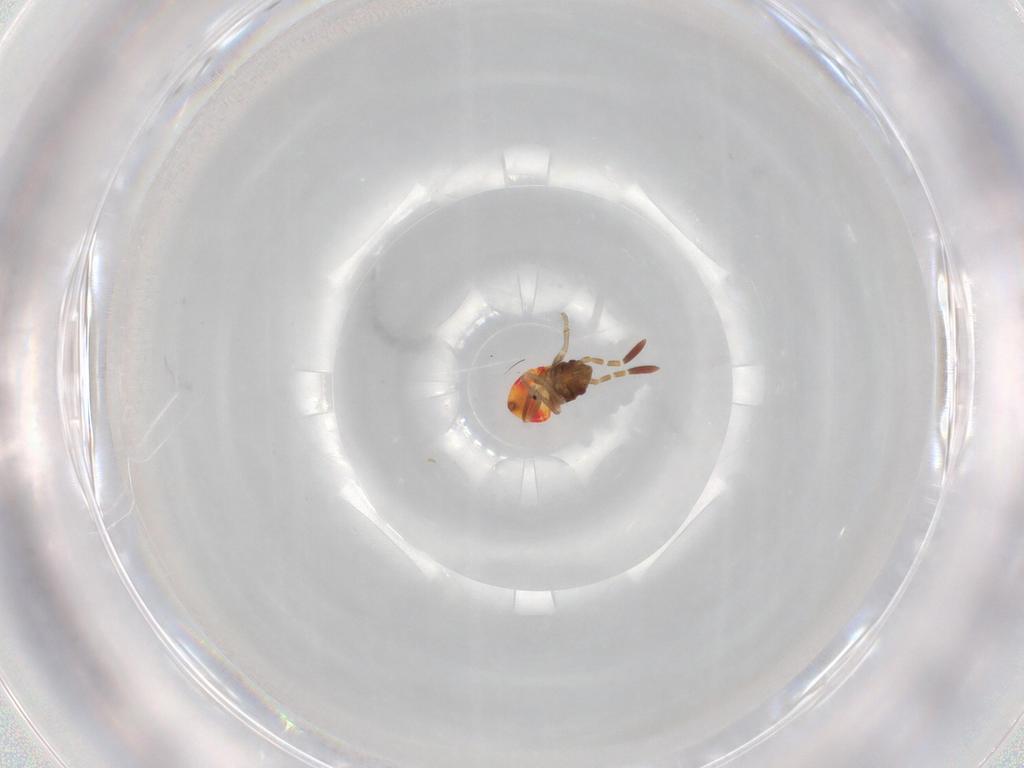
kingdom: Animalia
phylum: Arthropoda
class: Insecta
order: Hemiptera
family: Rhyparochromidae
